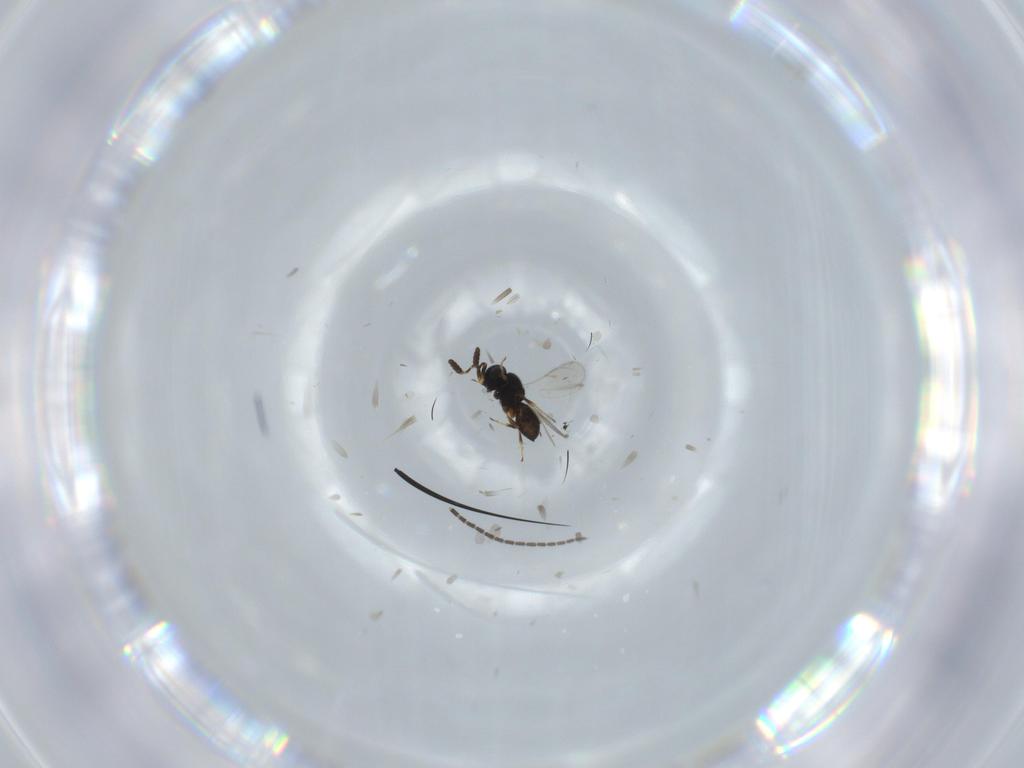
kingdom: Animalia
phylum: Arthropoda
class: Insecta
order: Hymenoptera
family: Scelionidae
